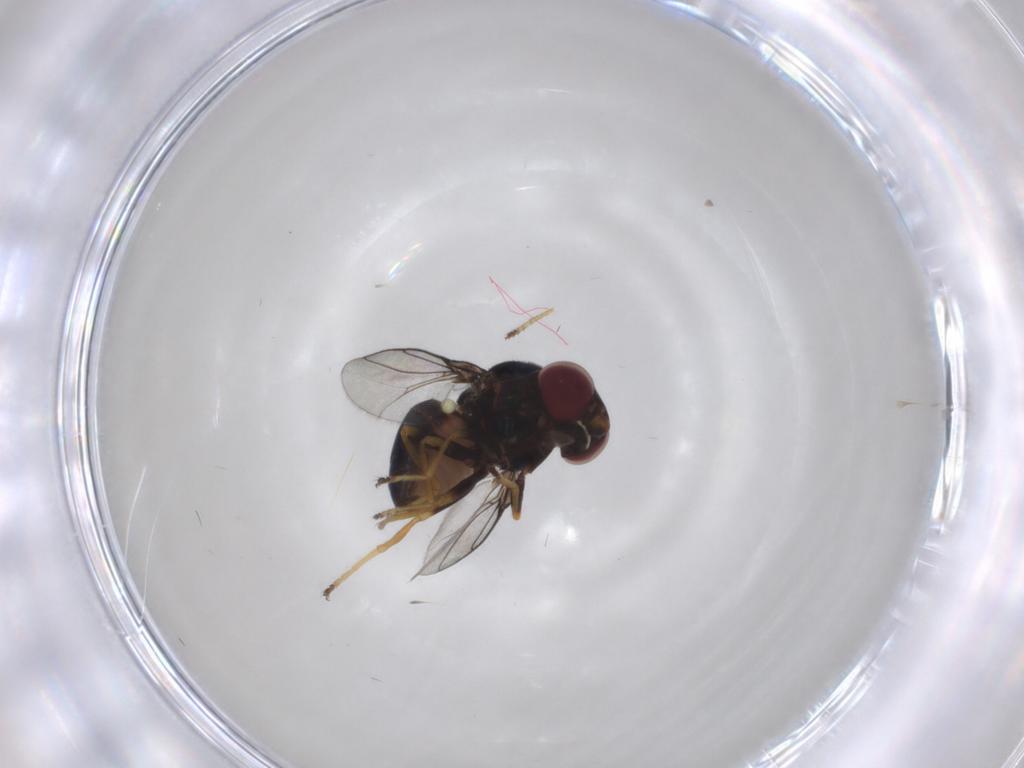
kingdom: Animalia
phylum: Arthropoda
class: Insecta
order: Diptera
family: Chloropidae
